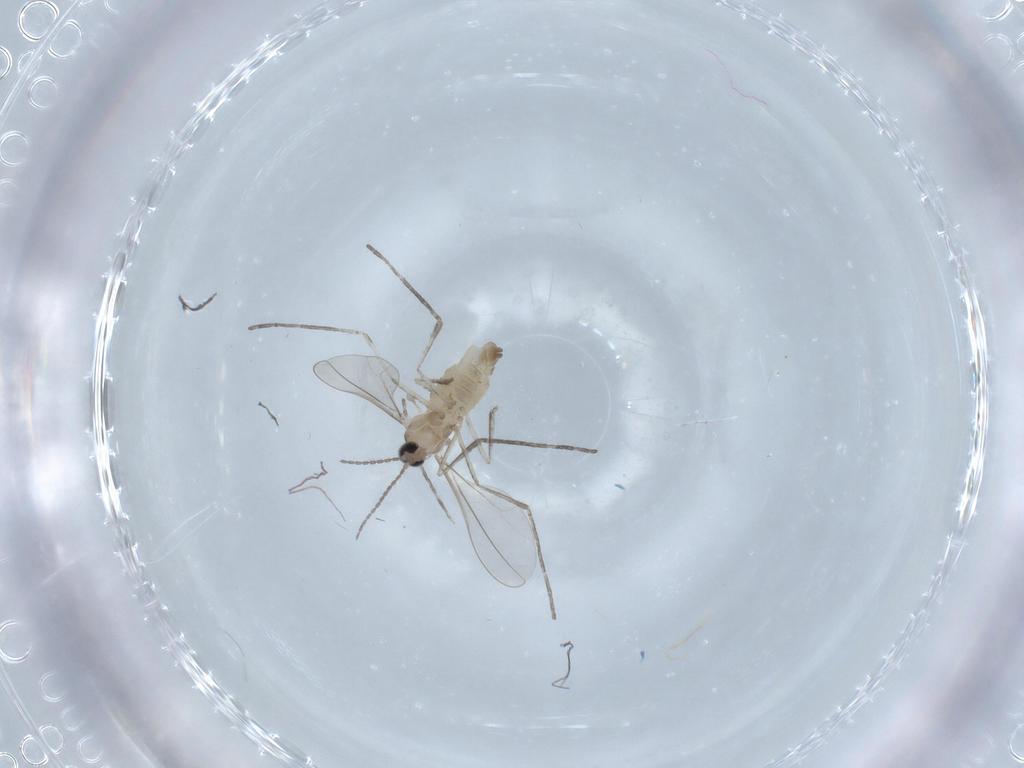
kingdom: Animalia
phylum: Arthropoda
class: Insecta
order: Diptera
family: Cecidomyiidae
